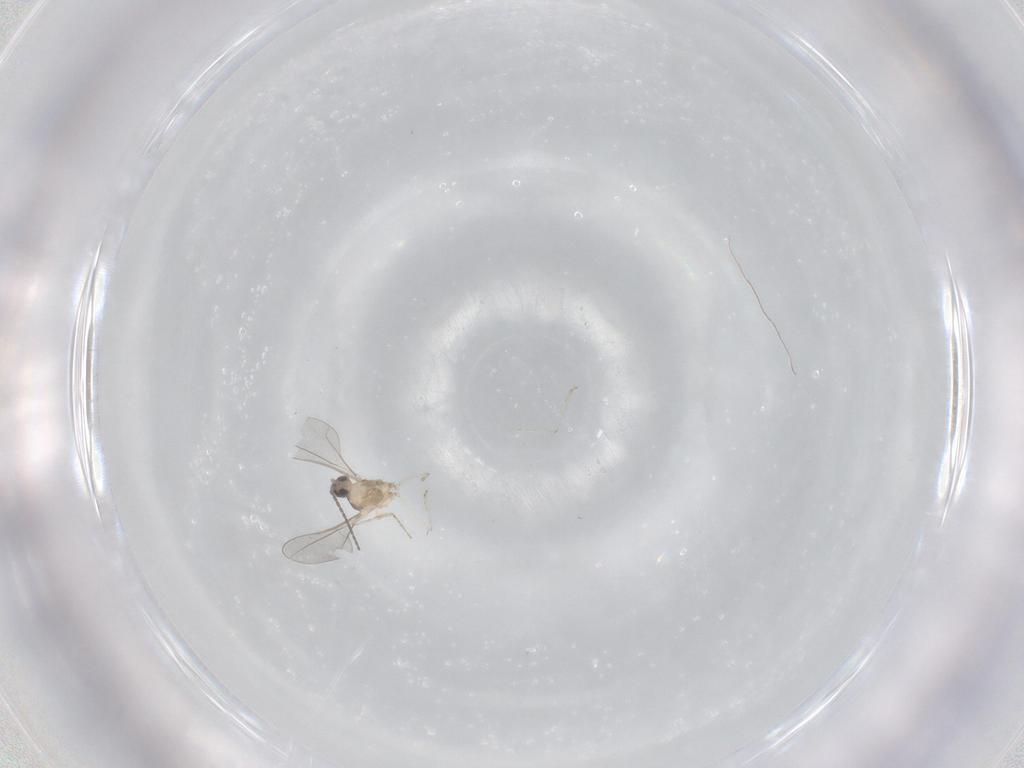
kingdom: Animalia
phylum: Arthropoda
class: Insecta
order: Diptera
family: Cecidomyiidae
